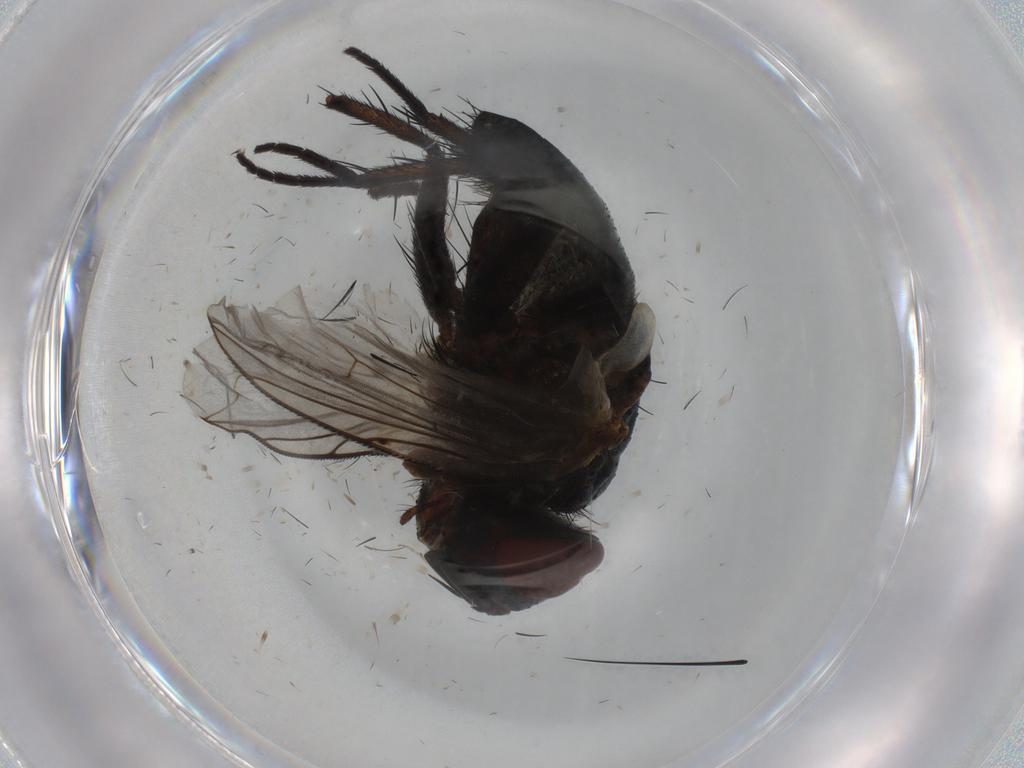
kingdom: Animalia
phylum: Arthropoda
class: Insecta
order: Diptera
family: Tachinidae
